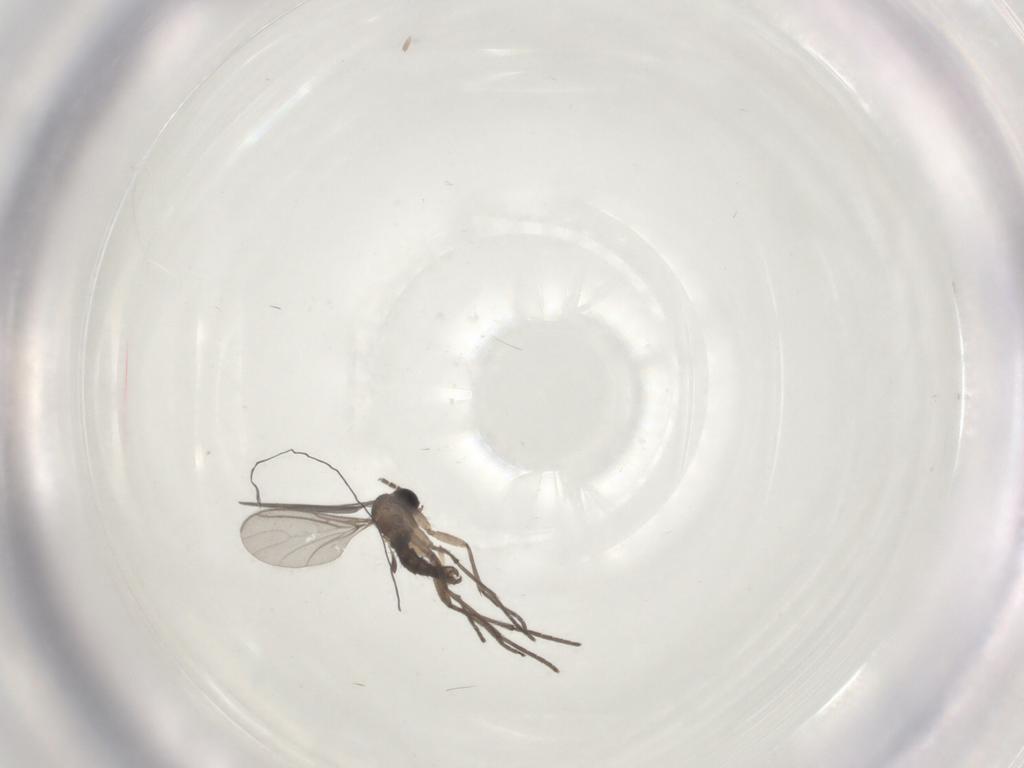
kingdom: Animalia
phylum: Arthropoda
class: Insecta
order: Diptera
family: Sciaridae
